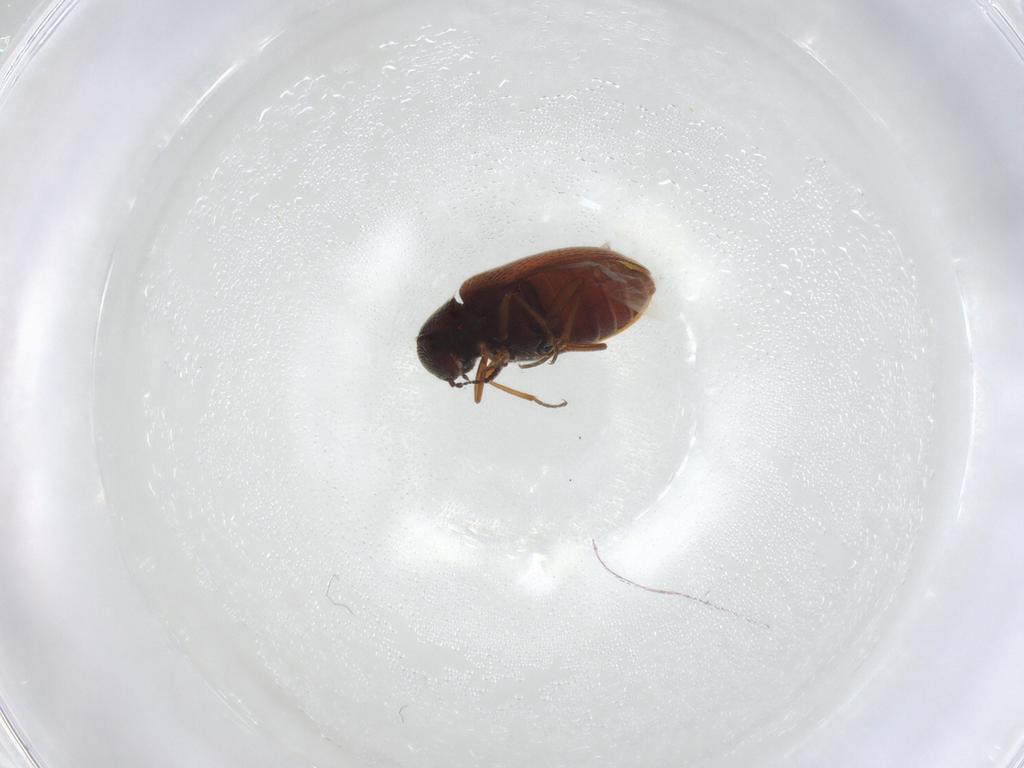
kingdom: Animalia
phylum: Arthropoda
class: Insecta
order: Coleoptera
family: Rhadalidae
